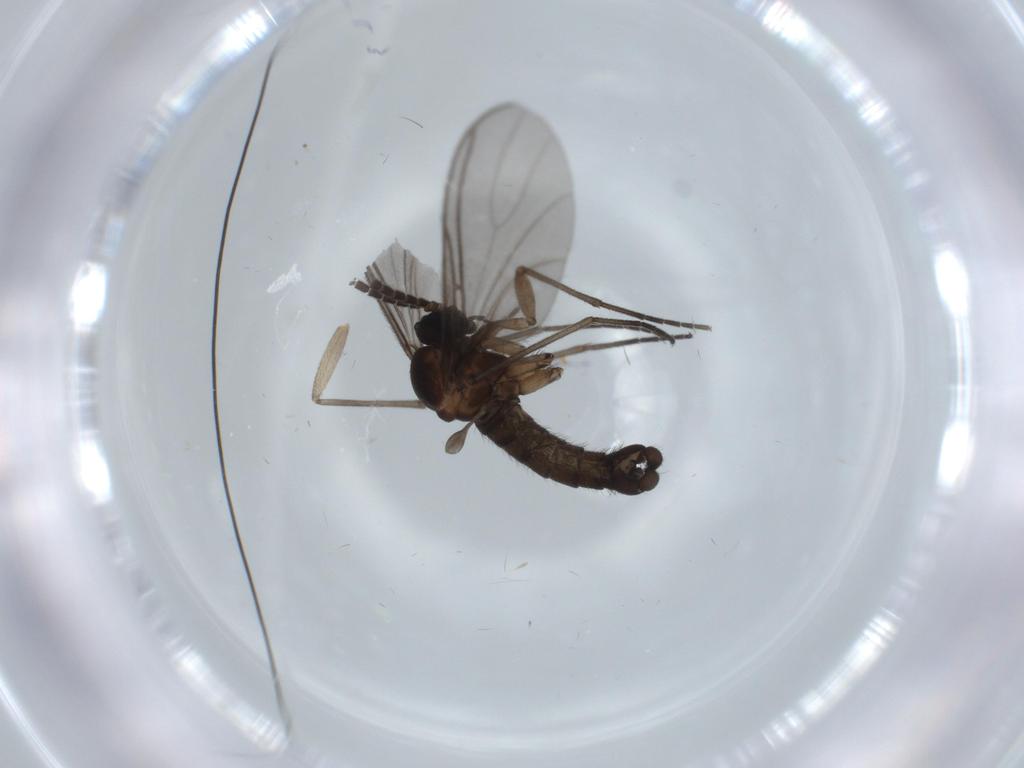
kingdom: Animalia
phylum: Arthropoda
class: Insecta
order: Diptera
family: Sciaridae
